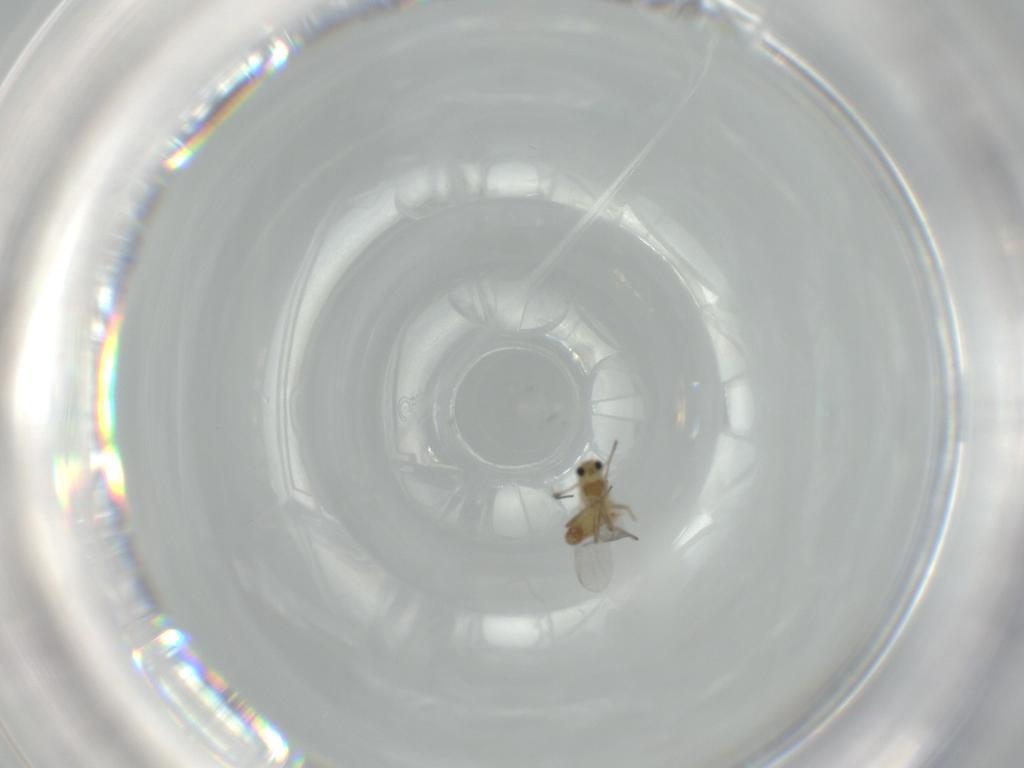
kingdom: Animalia
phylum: Arthropoda
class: Insecta
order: Diptera
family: Chironomidae
